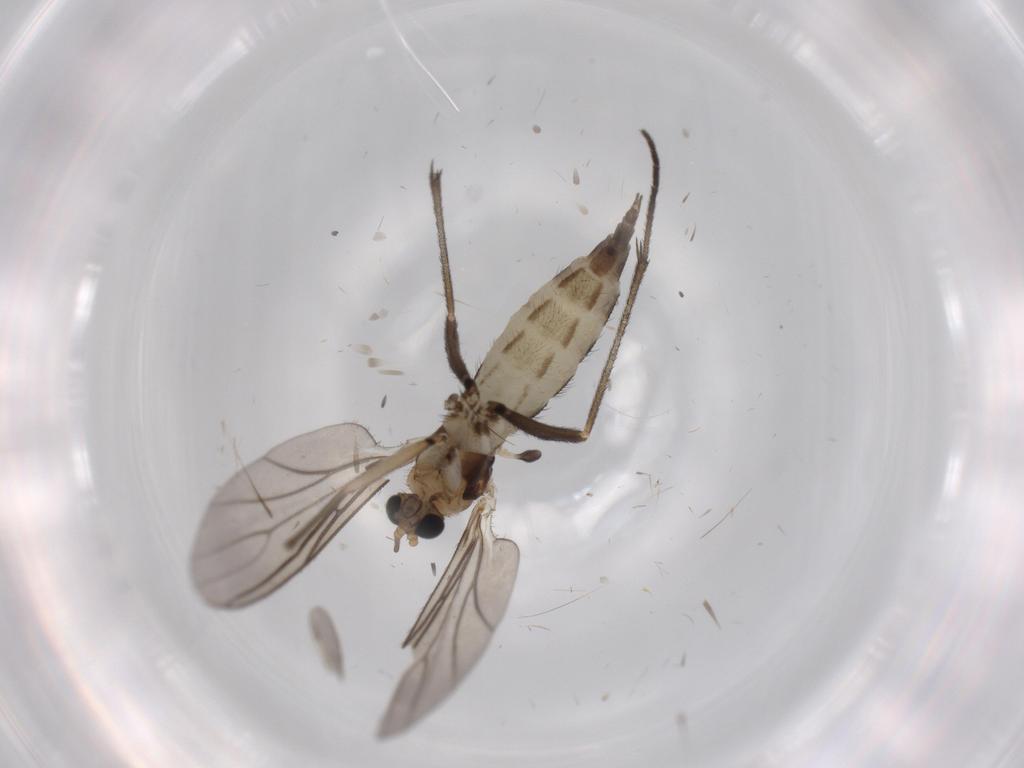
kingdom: Animalia
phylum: Arthropoda
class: Insecta
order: Diptera
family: Sciaridae
